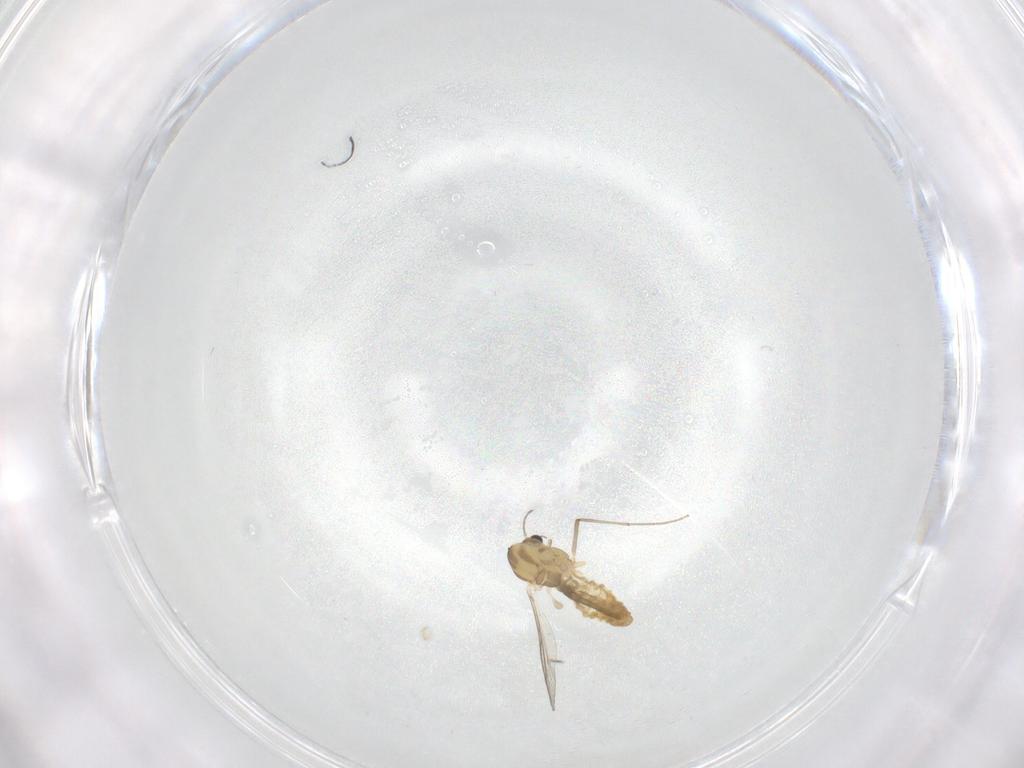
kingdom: Animalia
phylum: Arthropoda
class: Insecta
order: Diptera
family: Chironomidae
